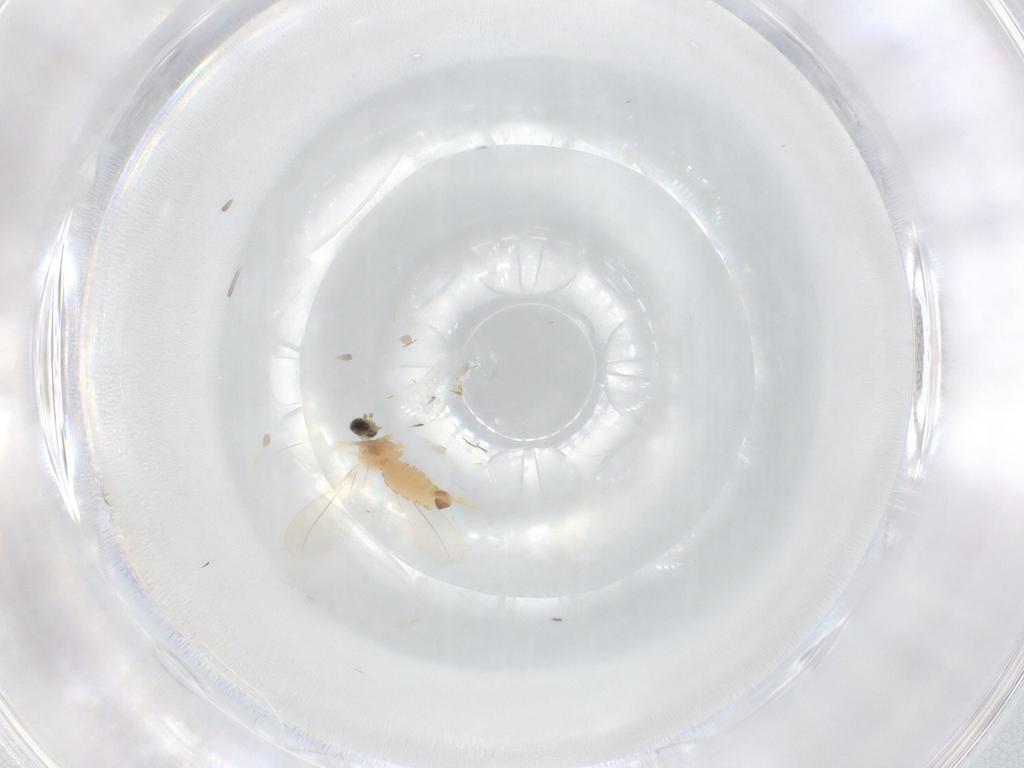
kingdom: Animalia
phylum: Arthropoda
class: Insecta
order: Diptera
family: Cecidomyiidae
